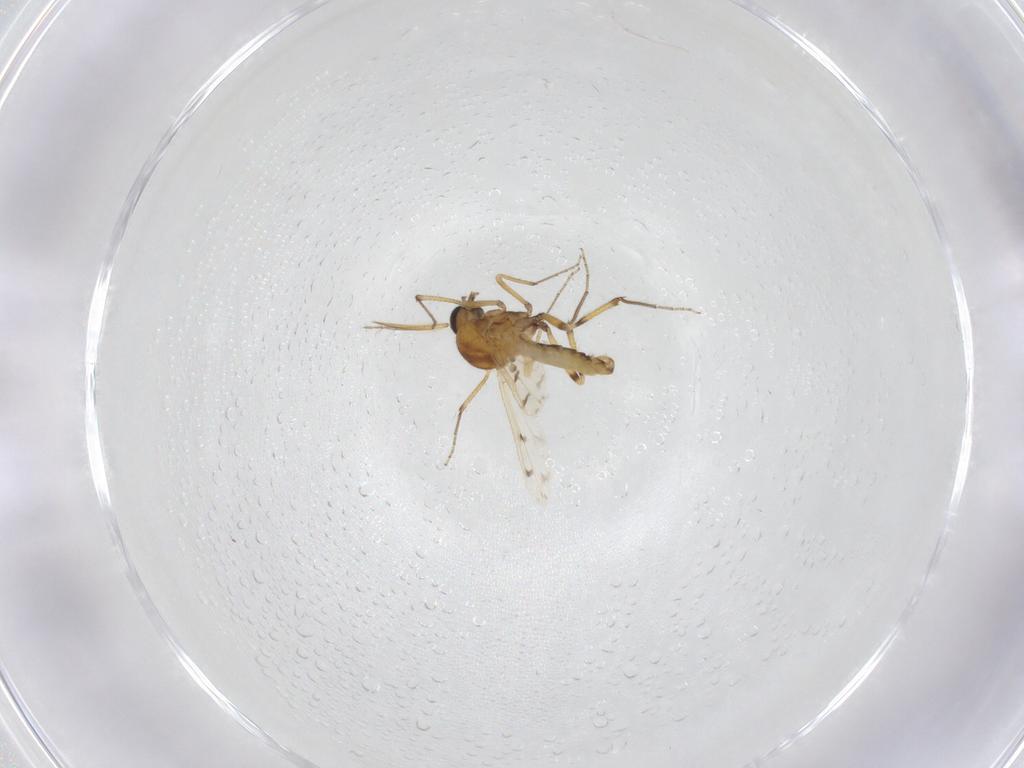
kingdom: Animalia
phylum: Arthropoda
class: Insecta
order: Diptera
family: Ceratopogonidae
